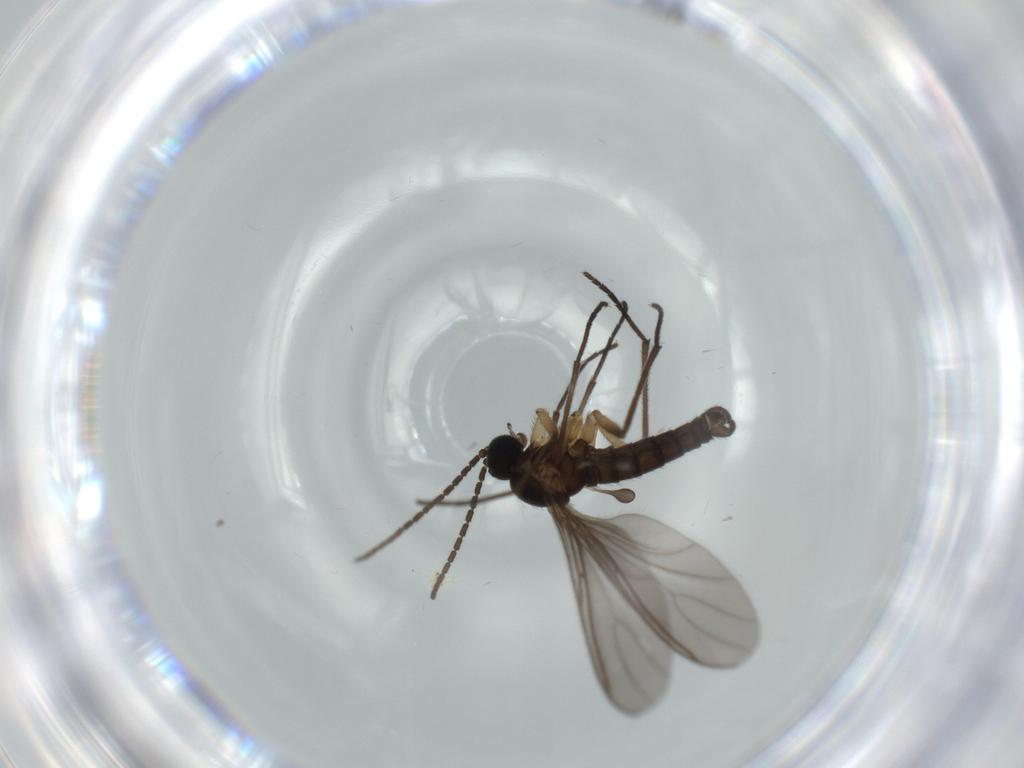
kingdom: Animalia
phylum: Arthropoda
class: Insecta
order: Diptera
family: Sciaridae
